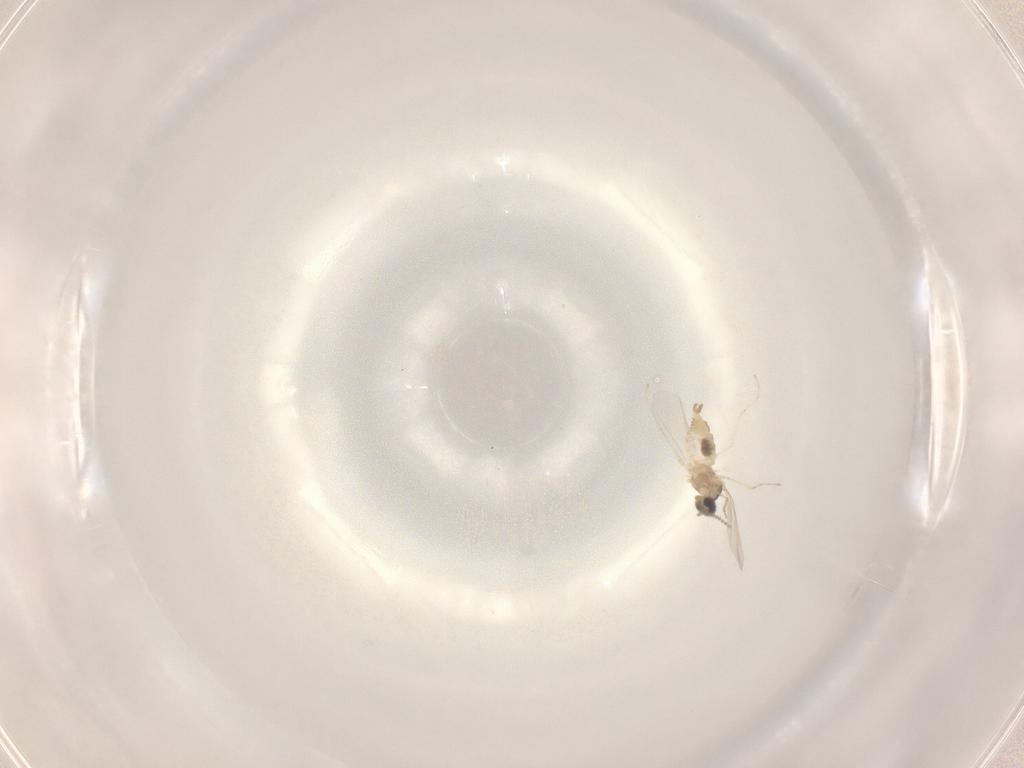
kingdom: Animalia
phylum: Arthropoda
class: Insecta
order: Diptera
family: Cecidomyiidae
